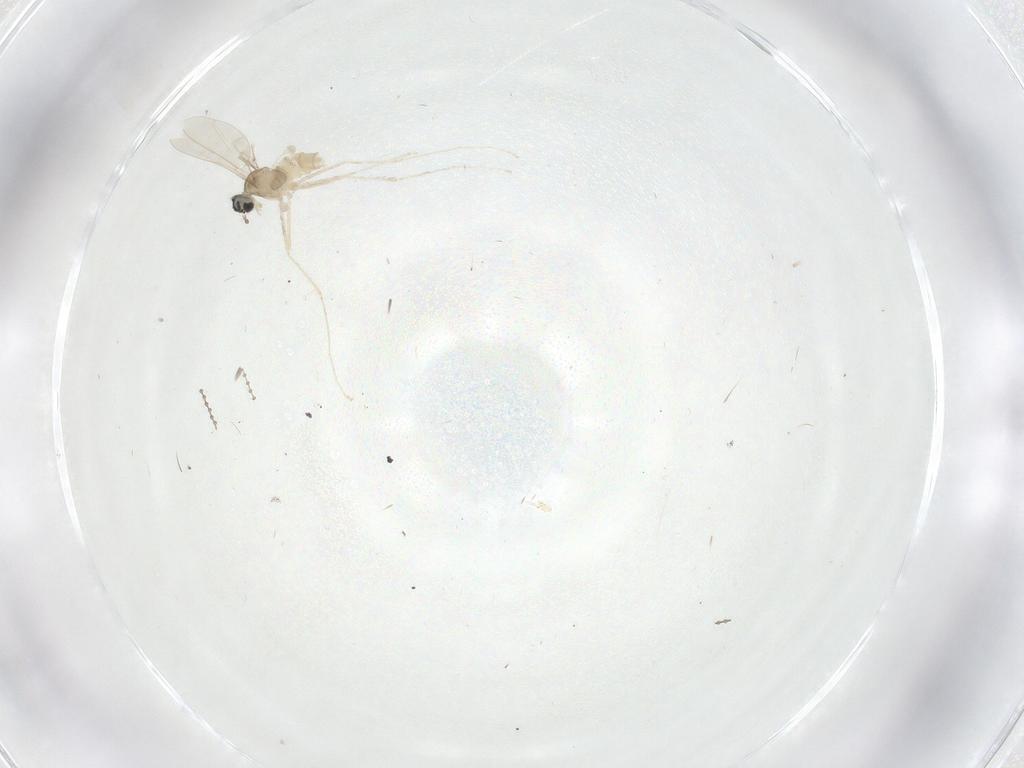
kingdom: Animalia
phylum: Arthropoda
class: Insecta
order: Diptera
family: Cecidomyiidae
